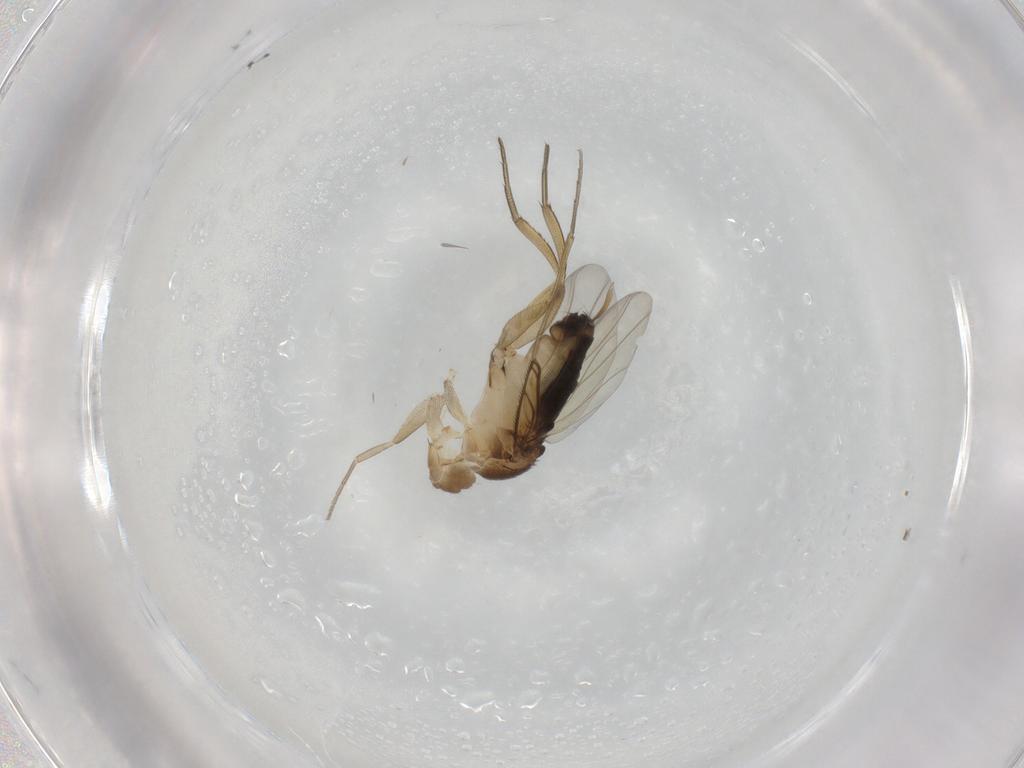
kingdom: Animalia
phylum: Arthropoda
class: Insecta
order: Diptera
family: Phoridae
